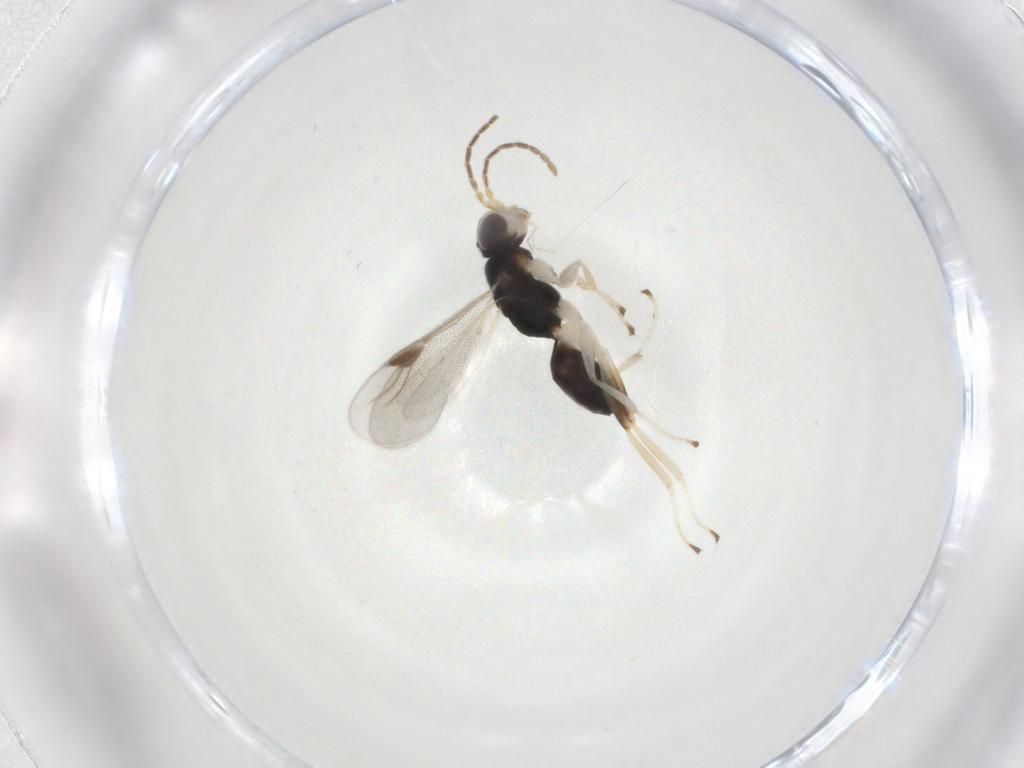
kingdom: Animalia
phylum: Arthropoda
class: Insecta
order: Hymenoptera
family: Dryinidae
